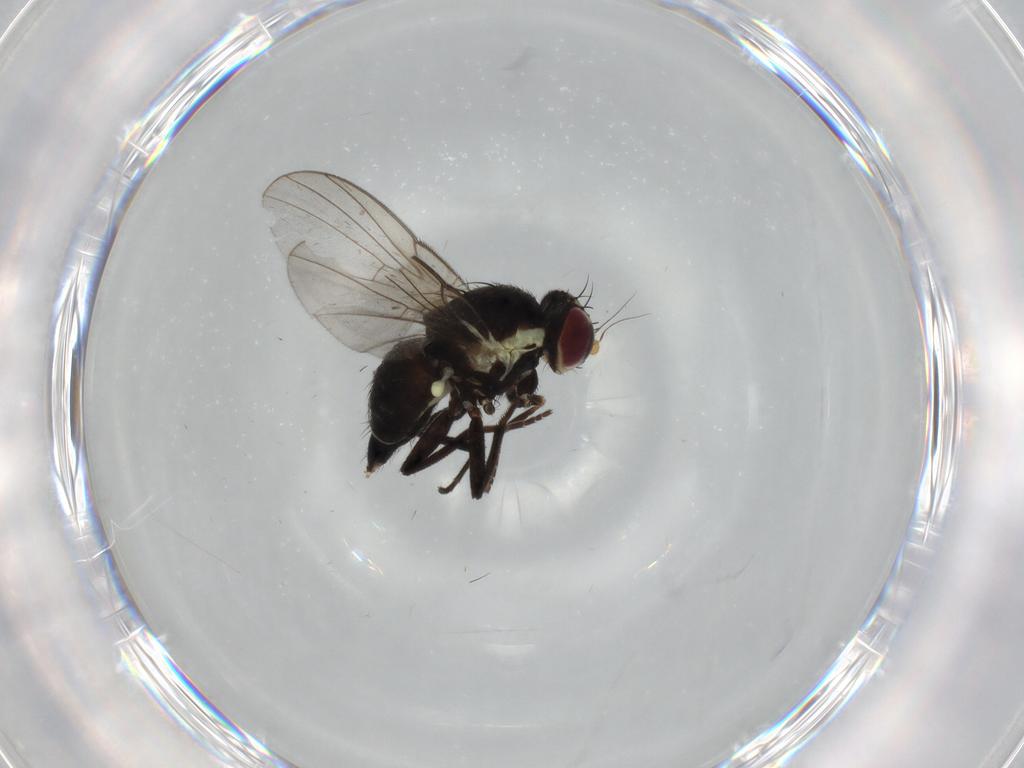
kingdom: Animalia
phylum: Arthropoda
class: Insecta
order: Diptera
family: Agromyzidae
